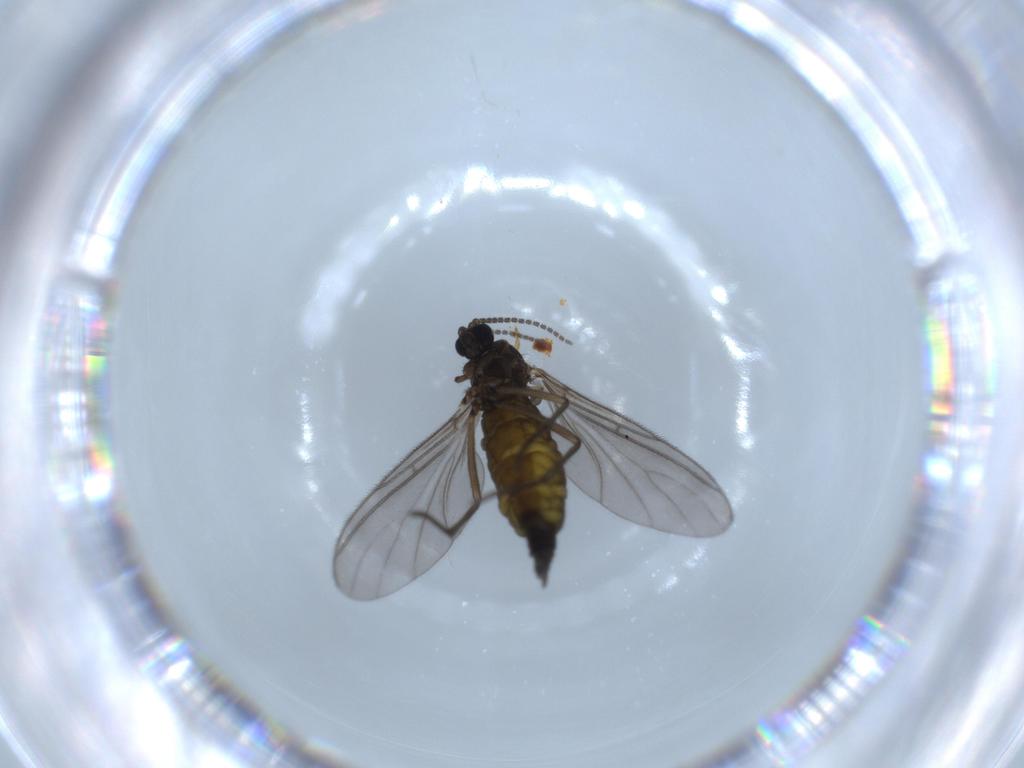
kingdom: Animalia
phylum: Arthropoda
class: Insecta
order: Diptera
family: Sciaridae
